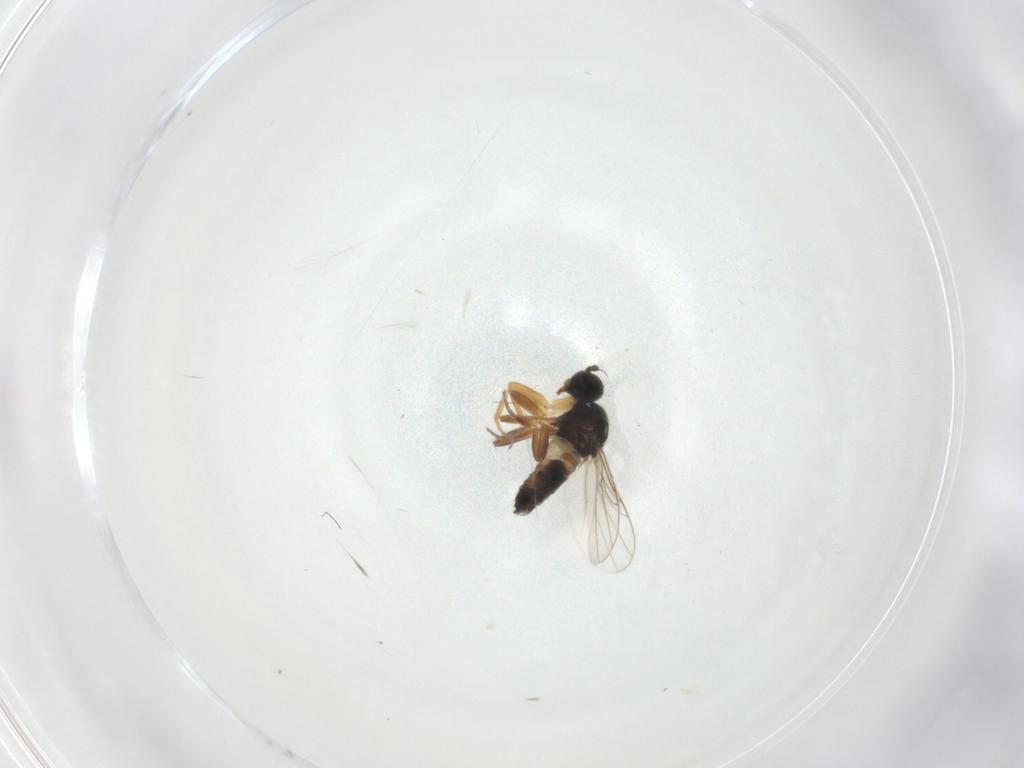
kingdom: Animalia
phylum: Arthropoda
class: Insecta
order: Diptera
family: Hybotidae
